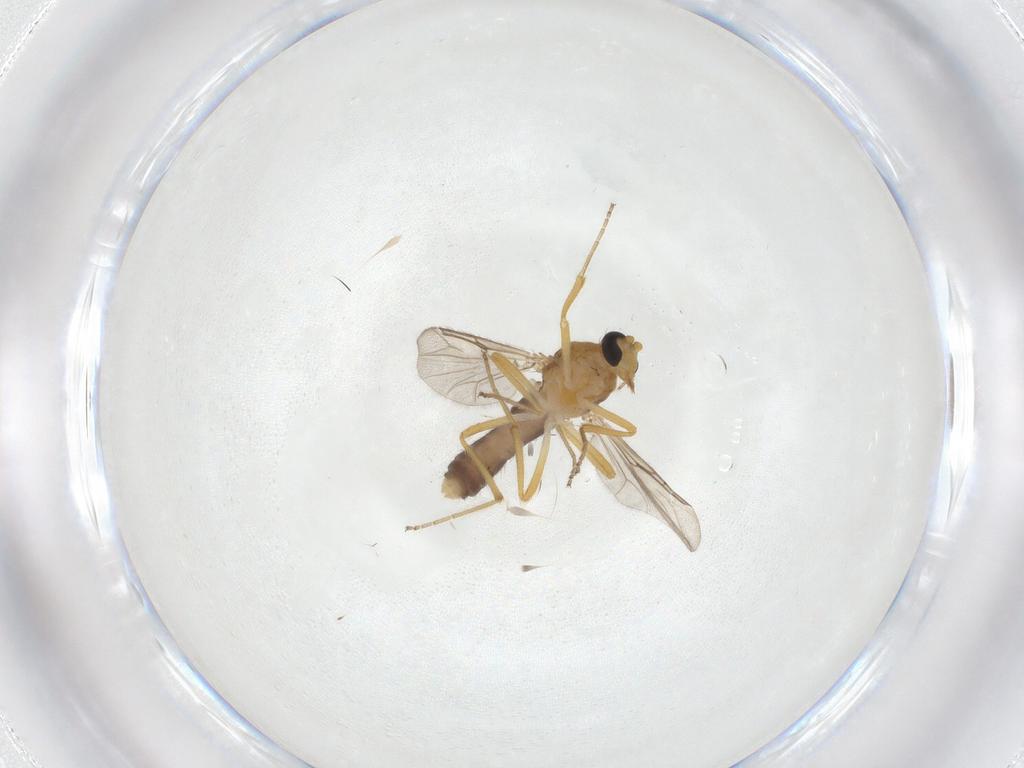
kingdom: Animalia
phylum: Arthropoda
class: Insecta
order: Diptera
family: Ceratopogonidae
